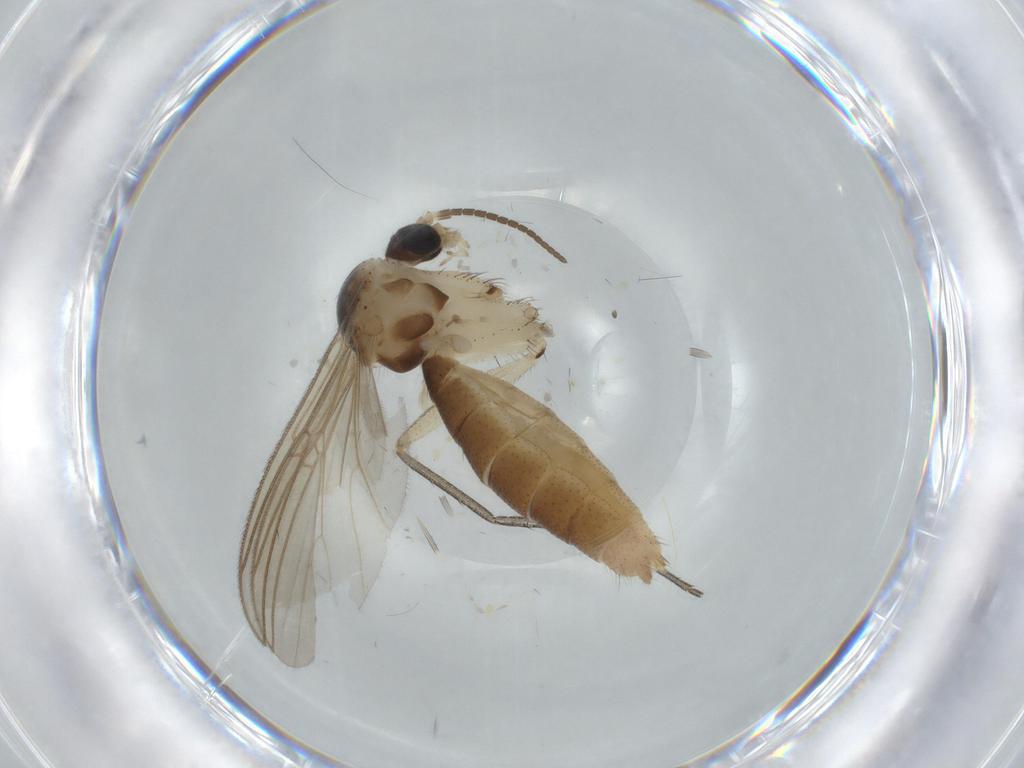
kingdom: Animalia
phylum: Arthropoda
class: Insecta
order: Diptera
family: Phoridae
